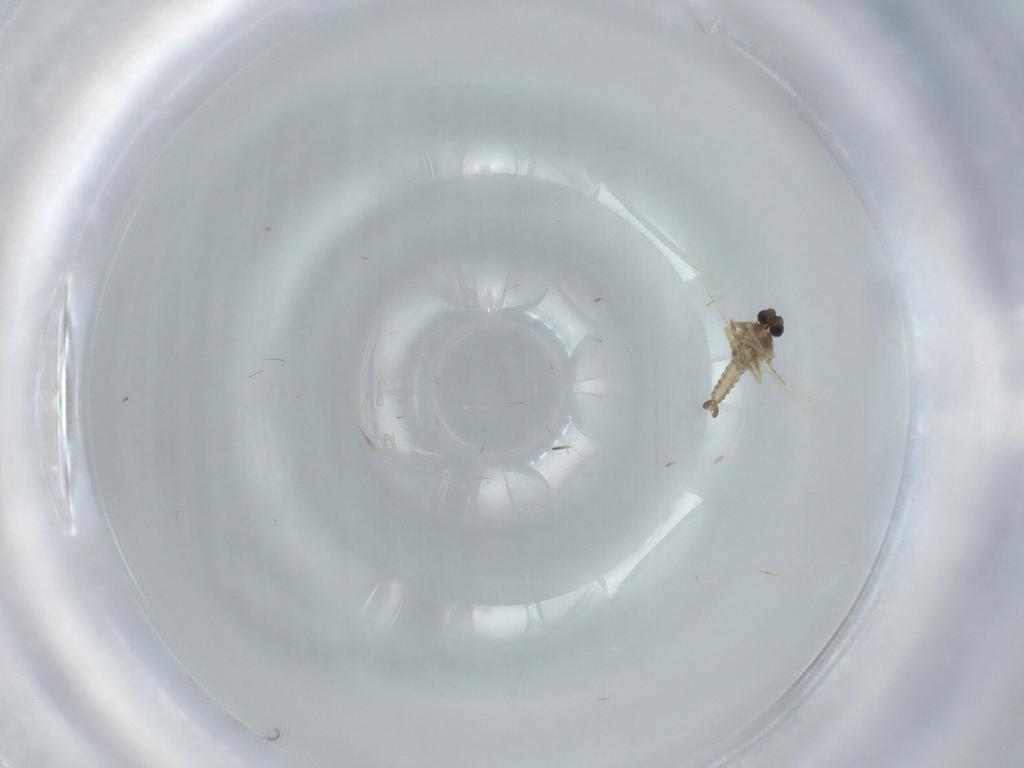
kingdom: Animalia
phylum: Arthropoda
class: Insecta
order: Diptera
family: Ceratopogonidae
